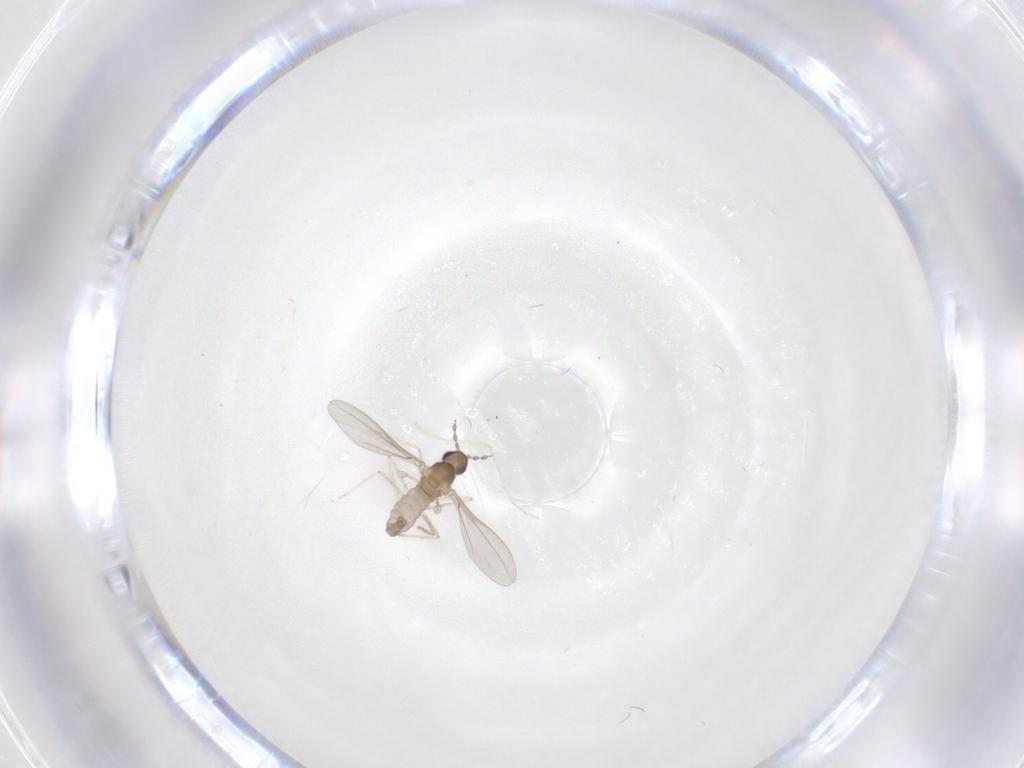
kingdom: Animalia
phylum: Arthropoda
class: Insecta
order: Diptera
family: Cecidomyiidae
